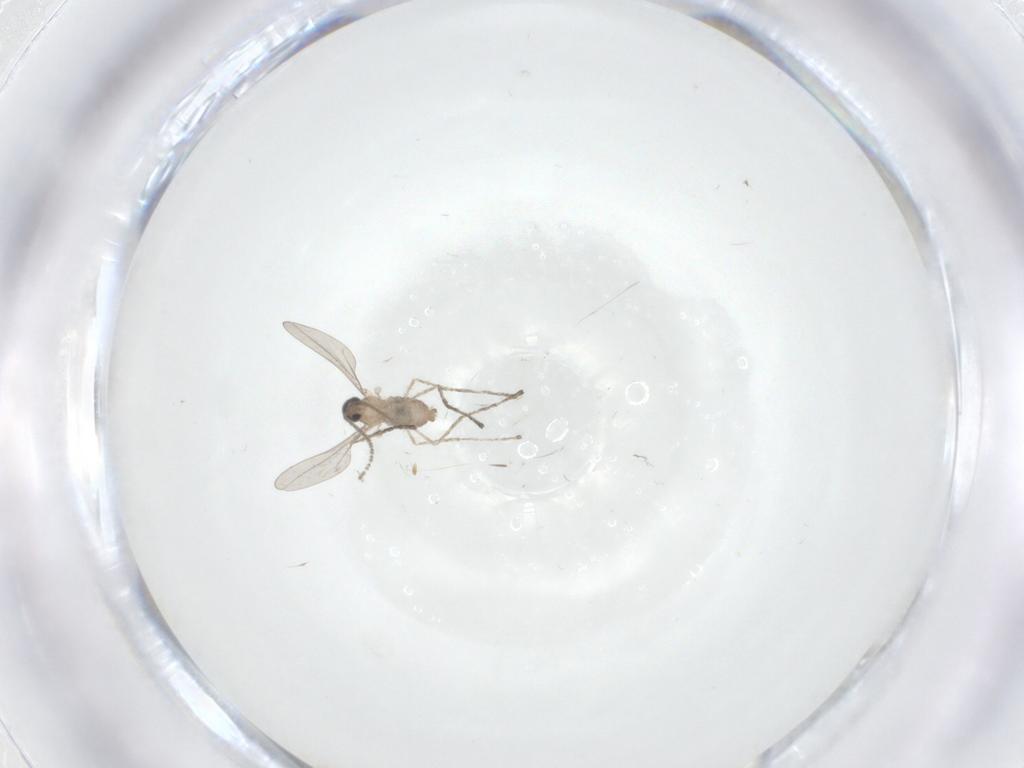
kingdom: Animalia
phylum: Arthropoda
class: Insecta
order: Diptera
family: Cecidomyiidae
